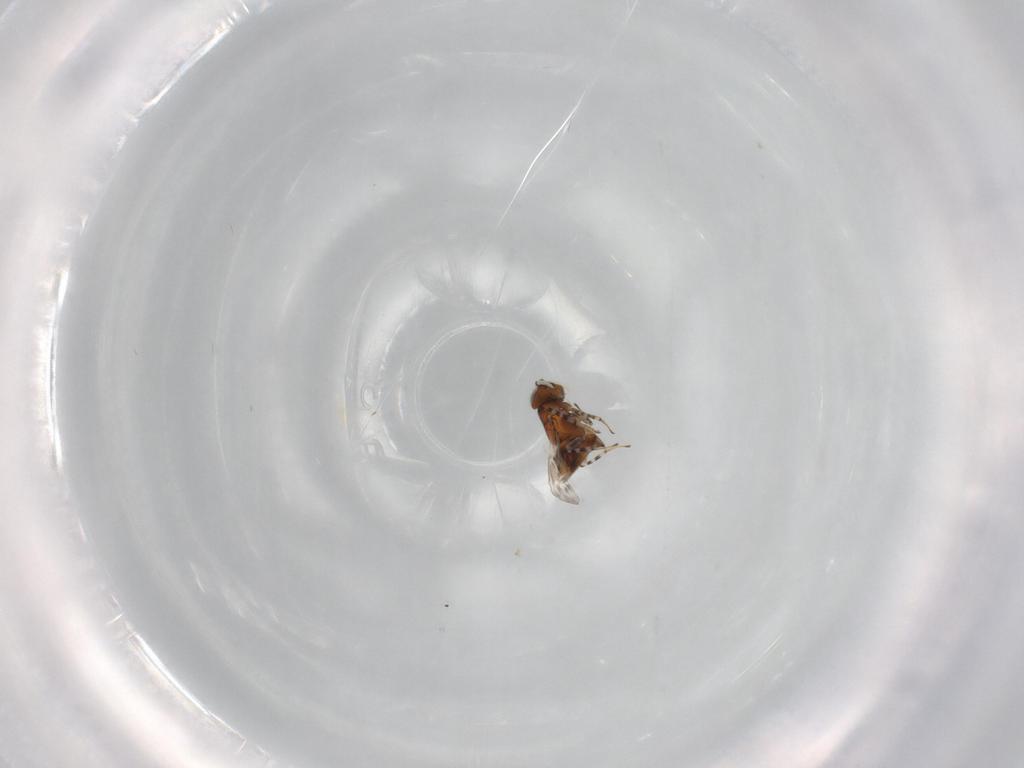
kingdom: Animalia
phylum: Arthropoda
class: Insecta
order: Hymenoptera
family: Encyrtidae
